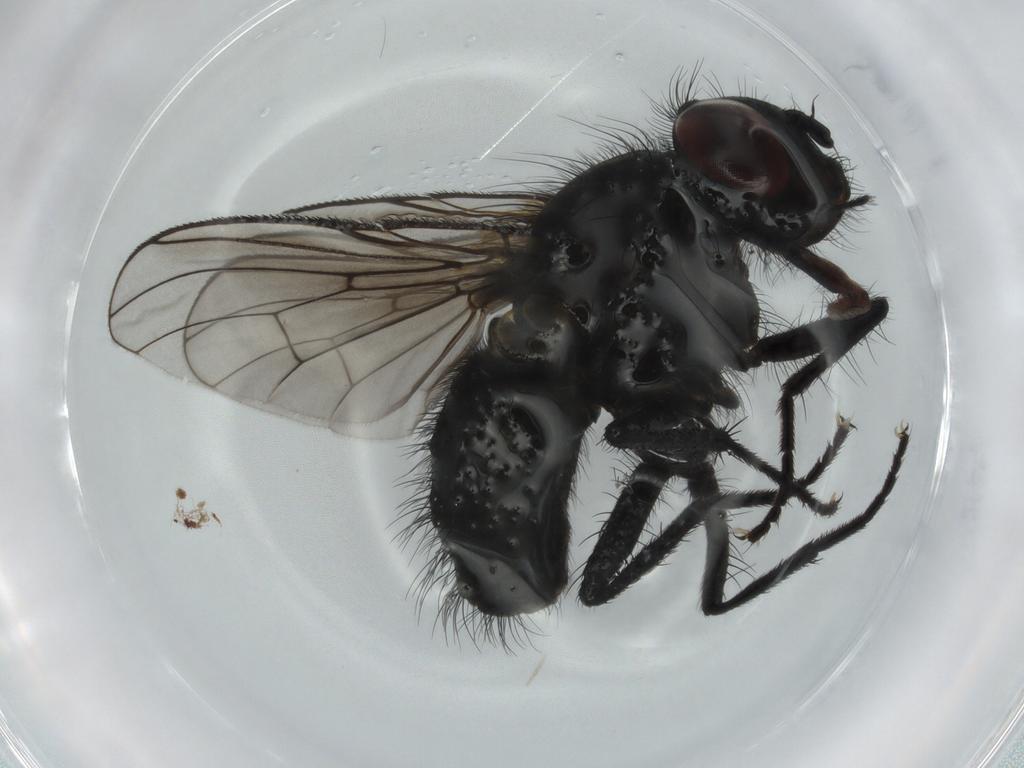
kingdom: Animalia
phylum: Arthropoda
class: Insecta
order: Diptera
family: Muscidae
